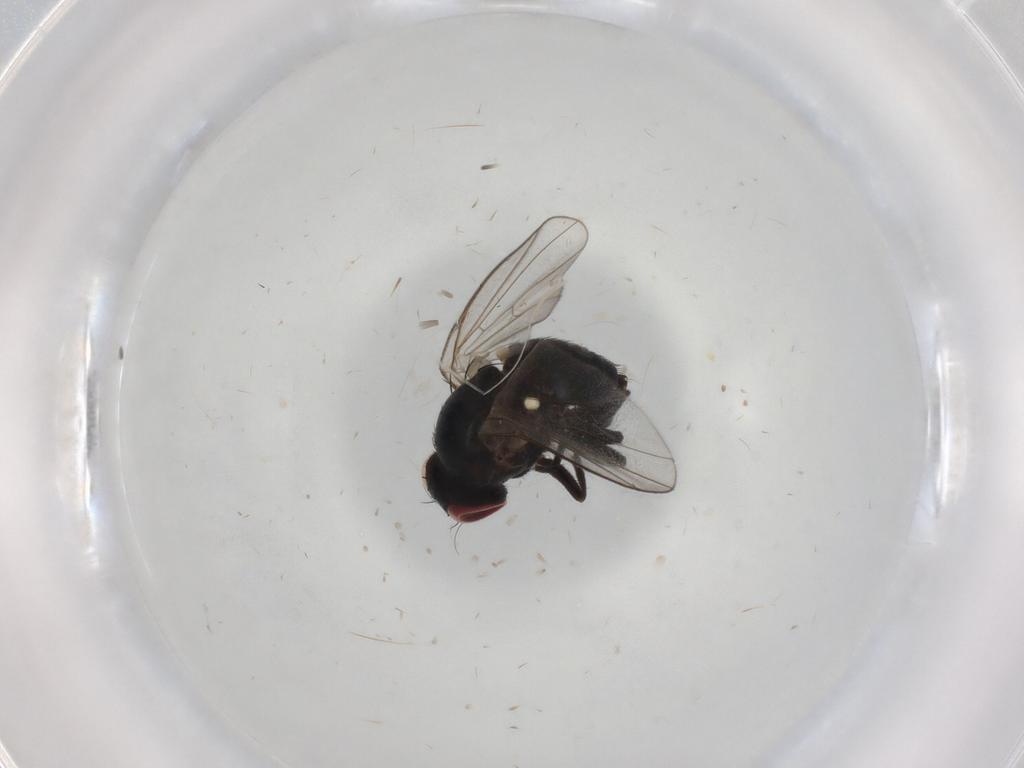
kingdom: Animalia
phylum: Arthropoda
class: Insecta
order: Diptera
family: Agromyzidae
